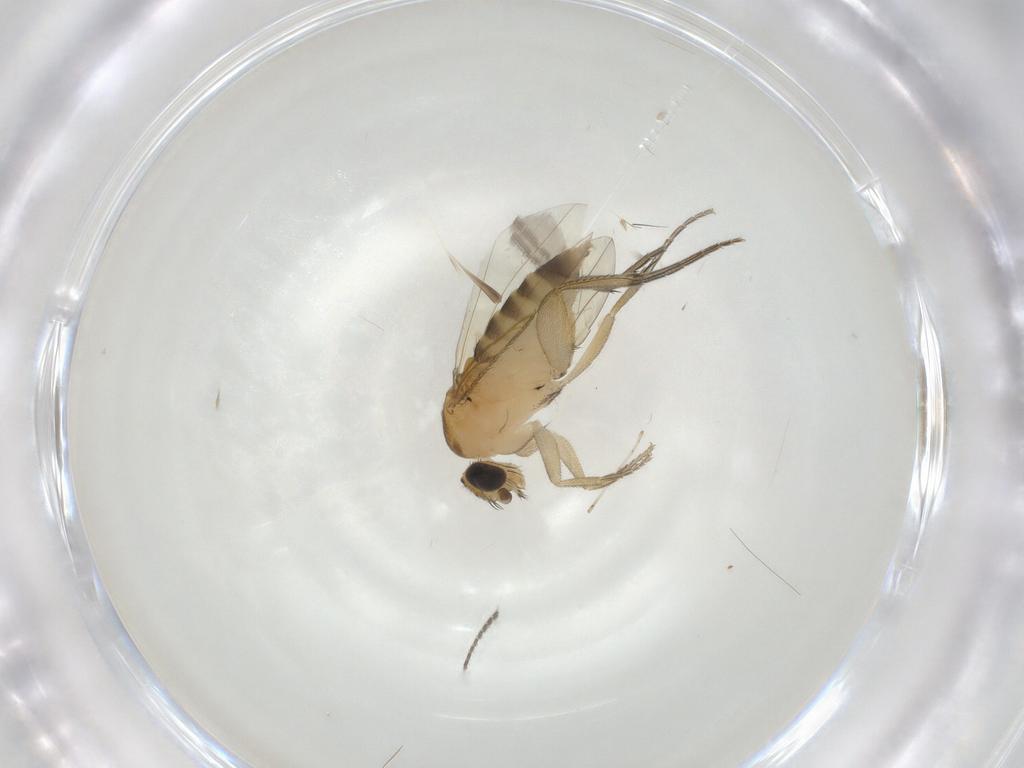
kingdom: Animalia
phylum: Arthropoda
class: Insecta
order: Diptera
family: Phoridae
